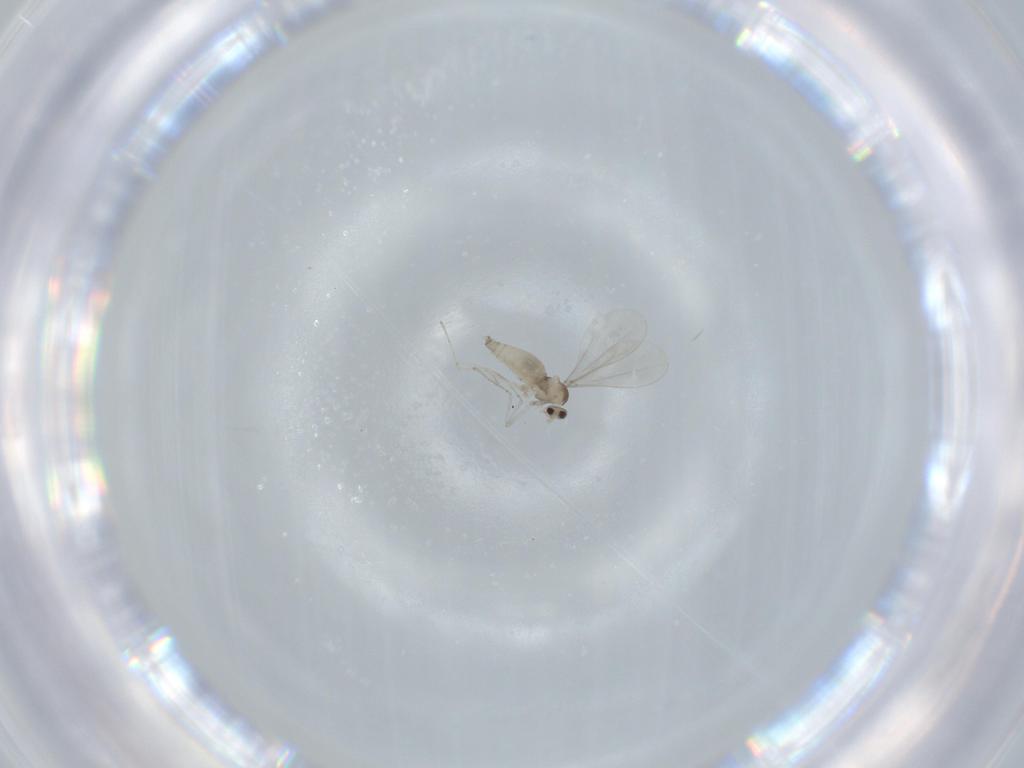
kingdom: Animalia
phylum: Arthropoda
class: Insecta
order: Diptera
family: Cecidomyiidae
